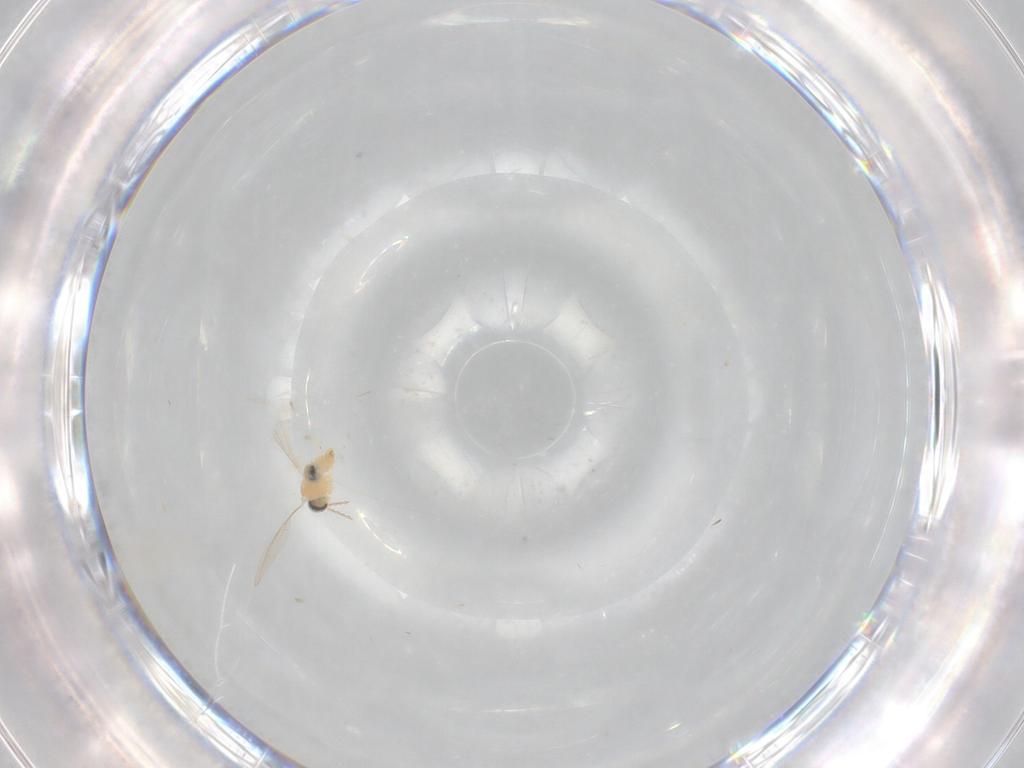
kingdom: Animalia
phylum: Arthropoda
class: Insecta
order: Diptera
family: Cecidomyiidae
